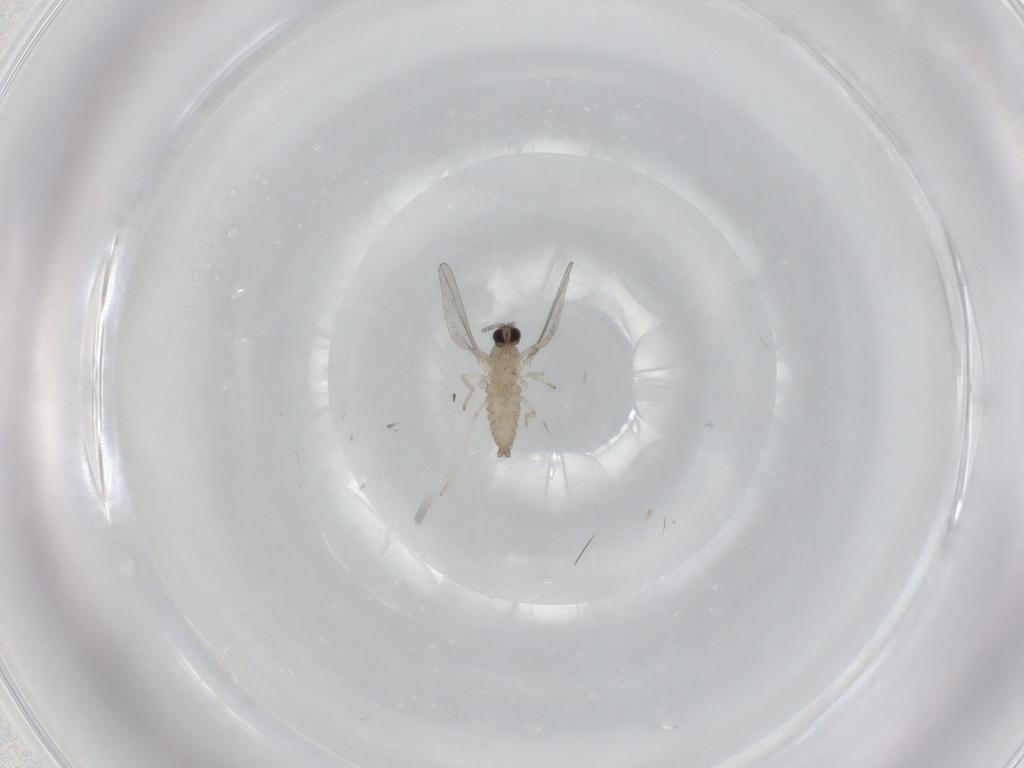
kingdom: Animalia
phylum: Arthropoda
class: Insecta
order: Diptera
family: Cecidomyiidae
